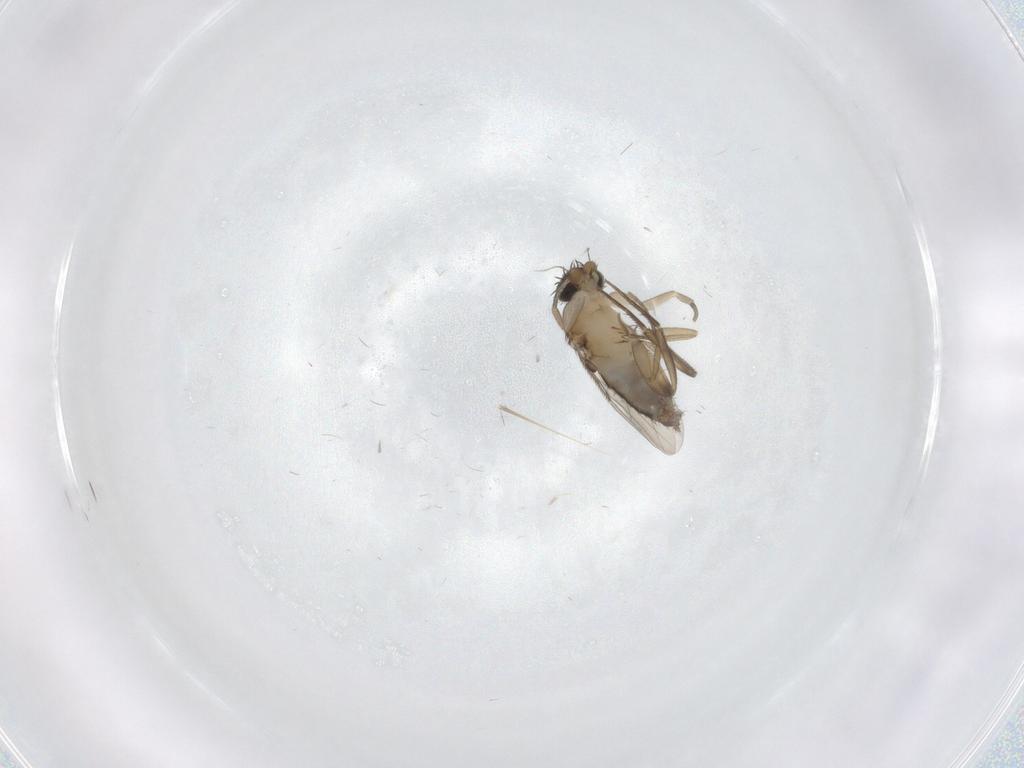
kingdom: Animalia
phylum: Arthropoda
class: Insecta
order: Diptera
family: Phoridae
